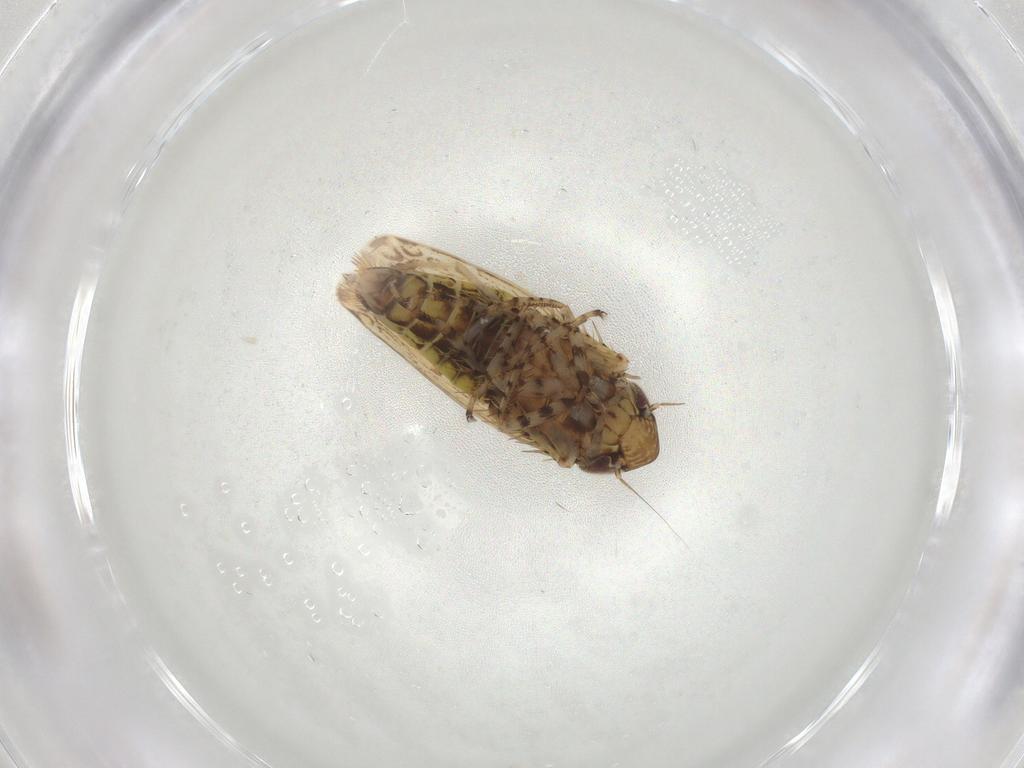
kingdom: Animalia
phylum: Arthropoda
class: Insecta
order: Hemiptera
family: Cicadellidae
